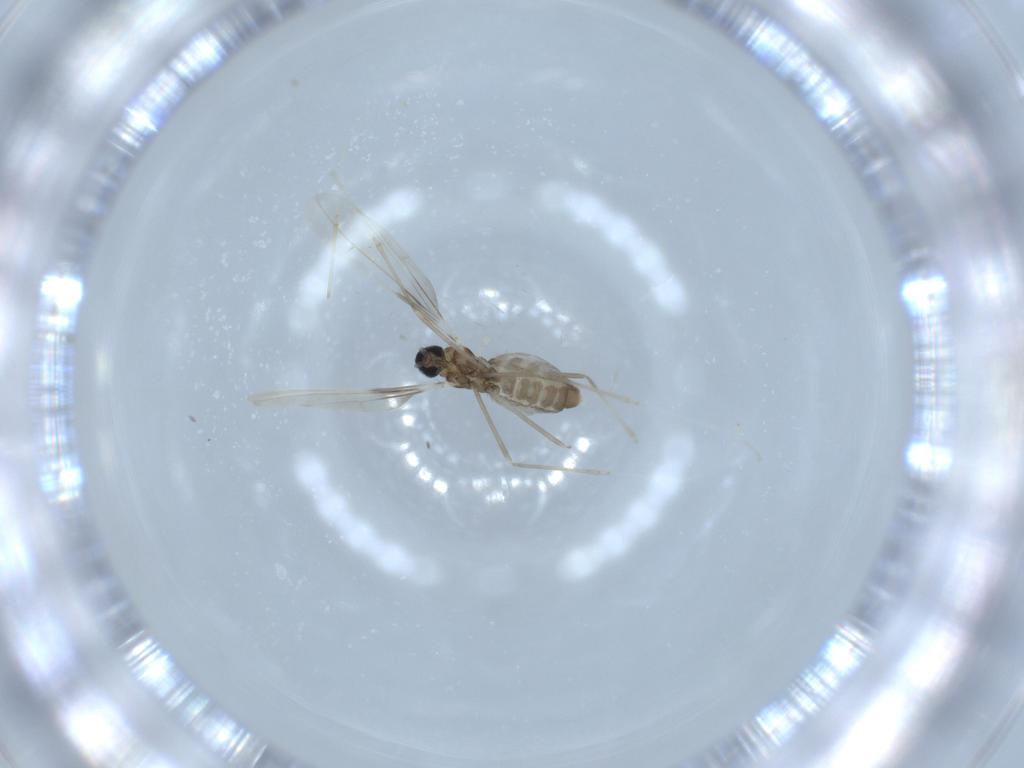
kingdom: Animalia
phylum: Arthropoda
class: Insecta
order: Diptera
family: Cecidomyiidae
